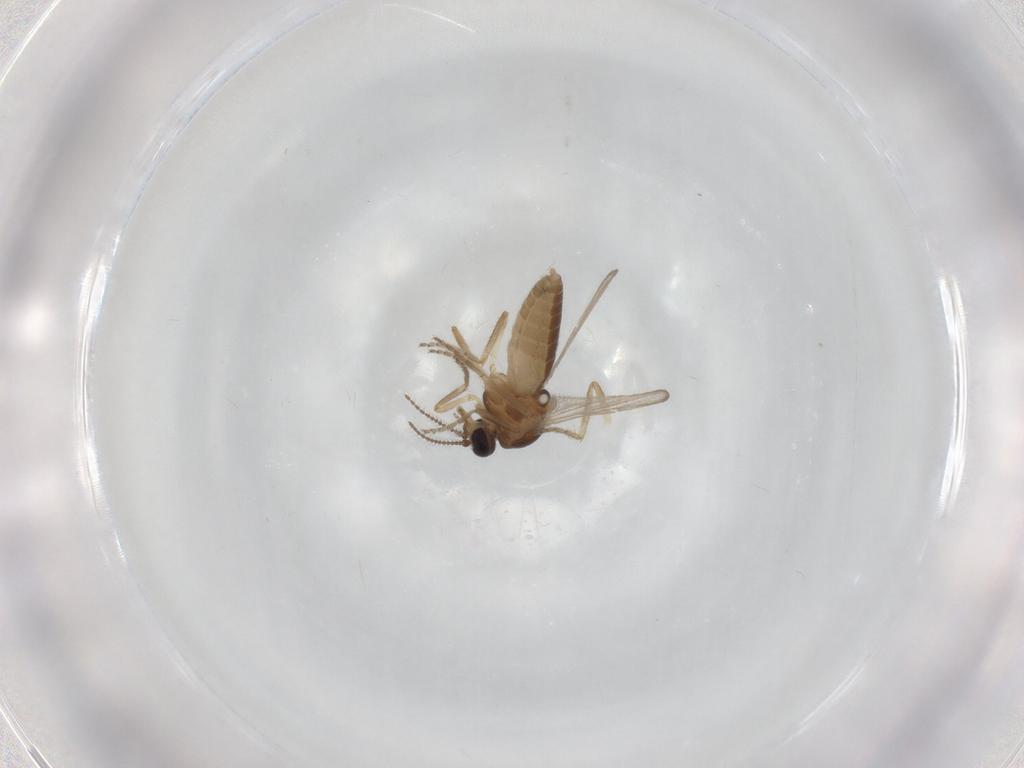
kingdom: Animalia
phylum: Arthropoda
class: Insecta
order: Diptera
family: Ceratopogonidae
